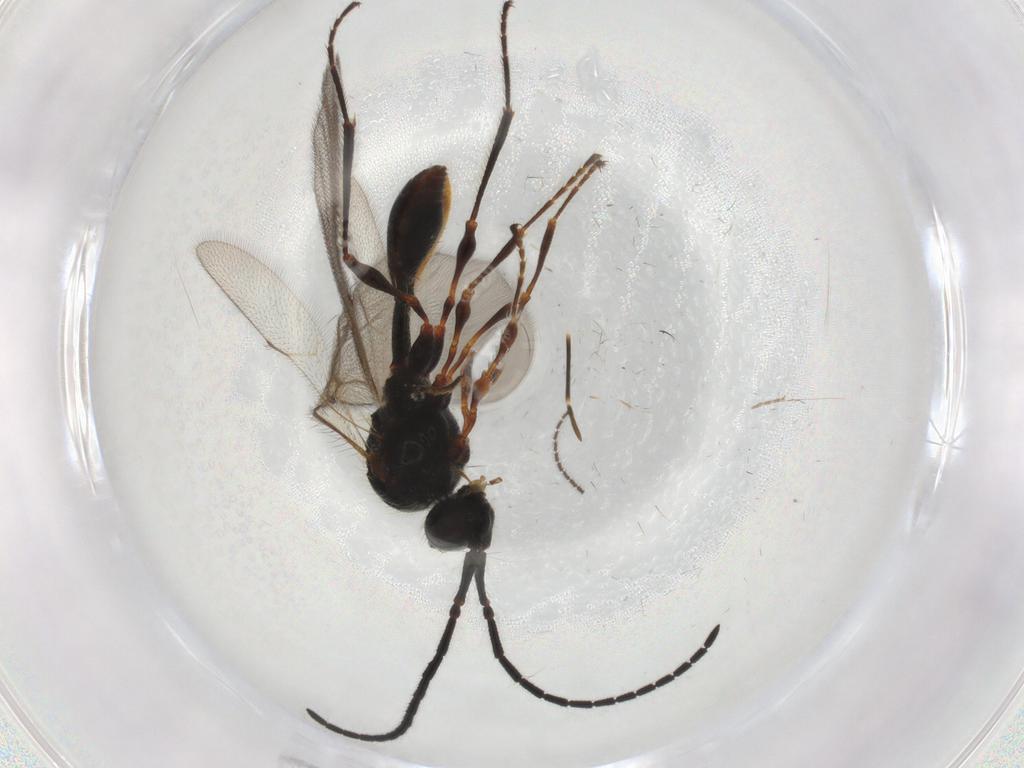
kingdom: Animalia
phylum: Arthropoda
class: Insecta
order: Hymenoptera
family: Diapriidae
